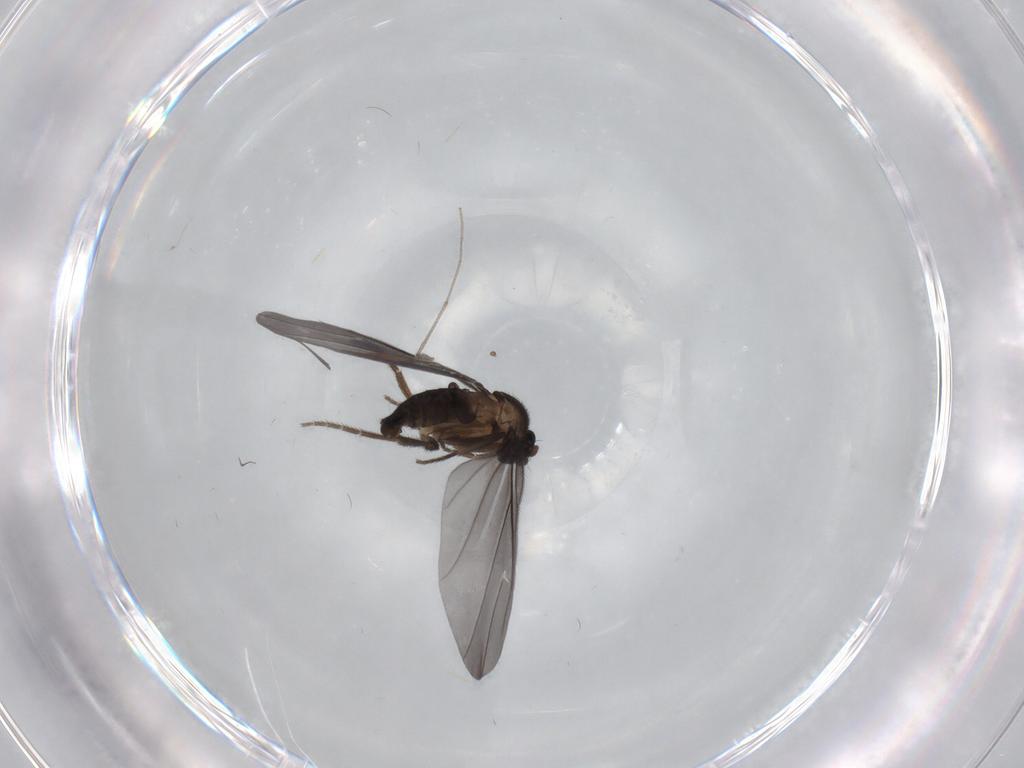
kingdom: Animalia
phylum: Arthropoda
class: Insecta
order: Diptera
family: Phoridae
